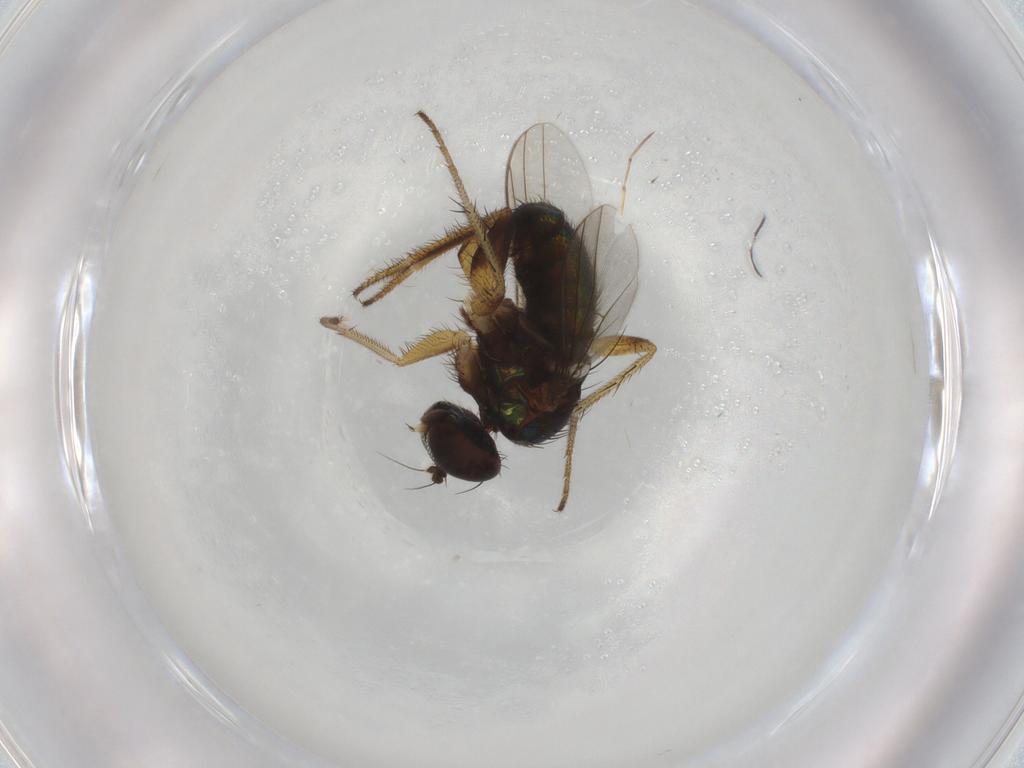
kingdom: Animalia
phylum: Arthropoda
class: Insecta
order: Diptera
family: Dolichopodidae
